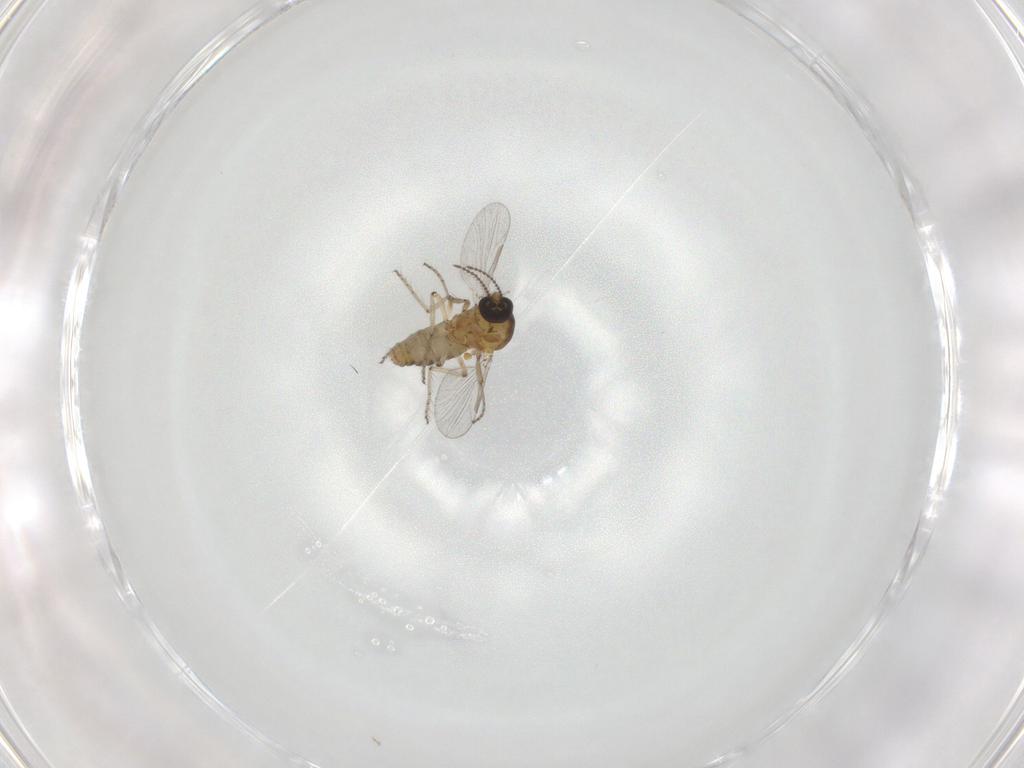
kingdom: Animalia
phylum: Arthropoda
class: Insecta
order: Diptera
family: Ceratopogonidae
